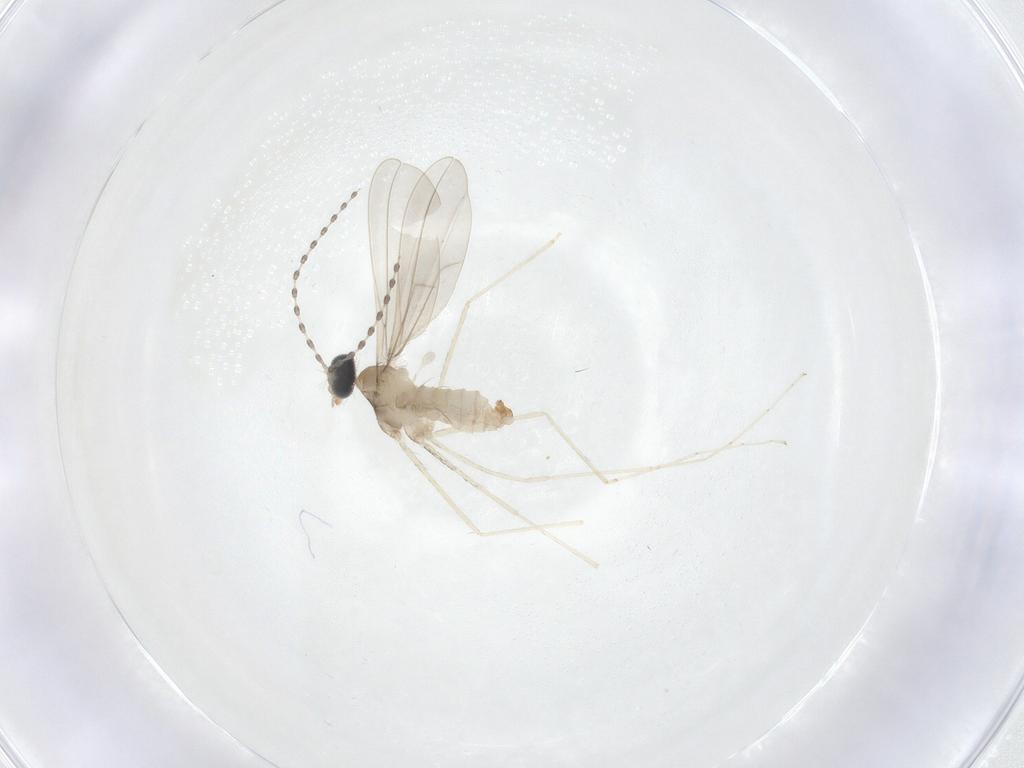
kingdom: Animalia
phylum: Arthropoda
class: Insecta
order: Diptera
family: Cecidomyiidae
